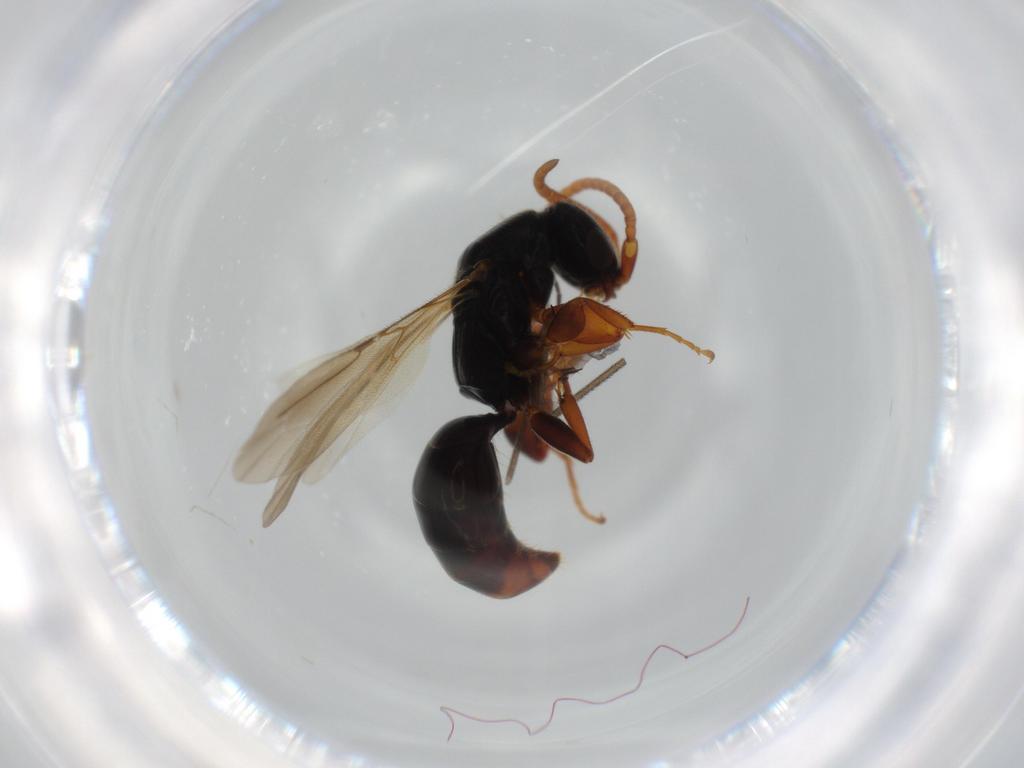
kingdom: Animalia
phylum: Arthropoda
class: Insecta
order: Hymenoptera
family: Bethylidae
